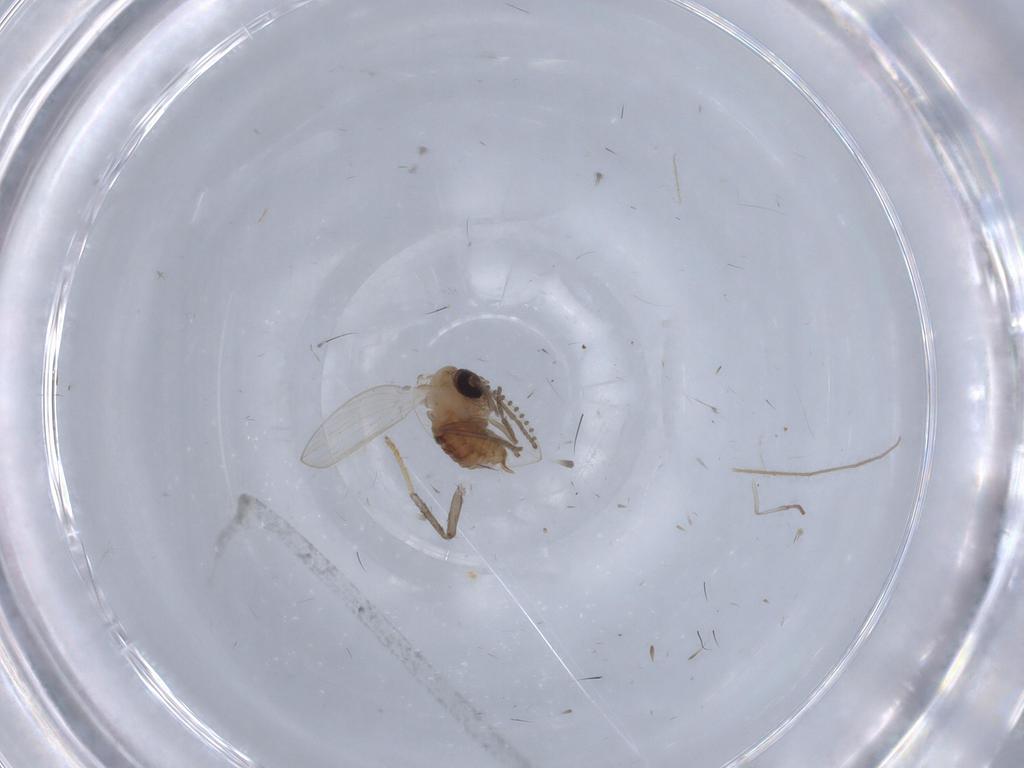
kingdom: Animalia
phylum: Arthropoda
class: Insecta
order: Diptera
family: Psychodidae
